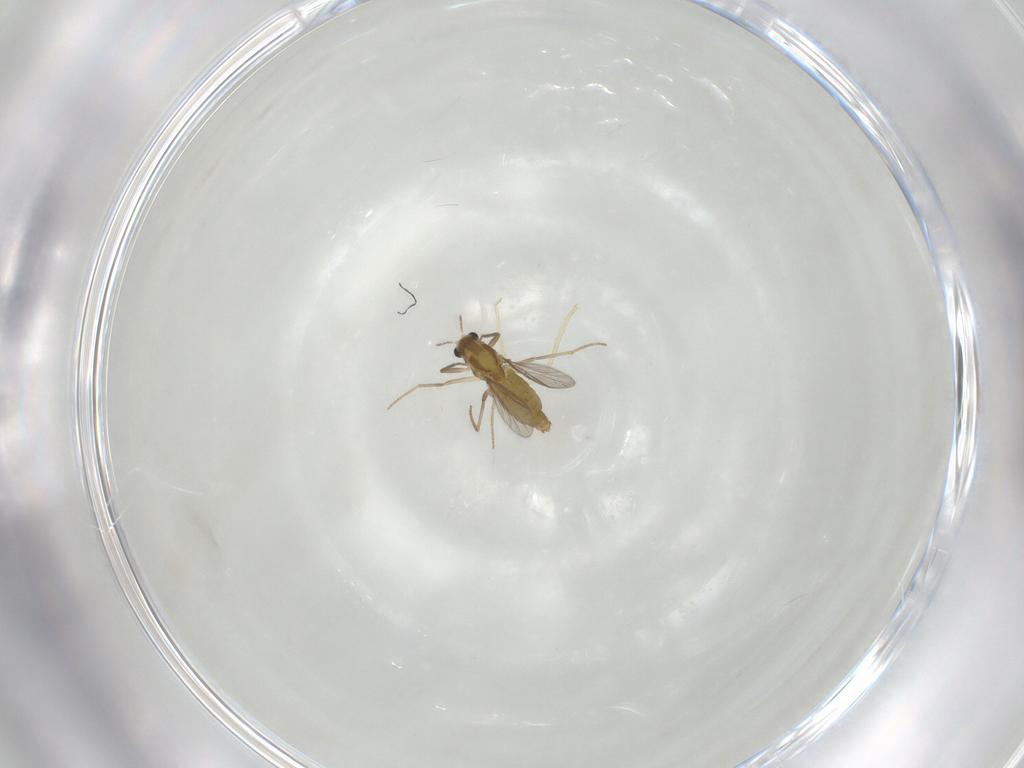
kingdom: Animalia
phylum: Arthropoda
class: Insecta
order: Diptera
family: Chironomidae
